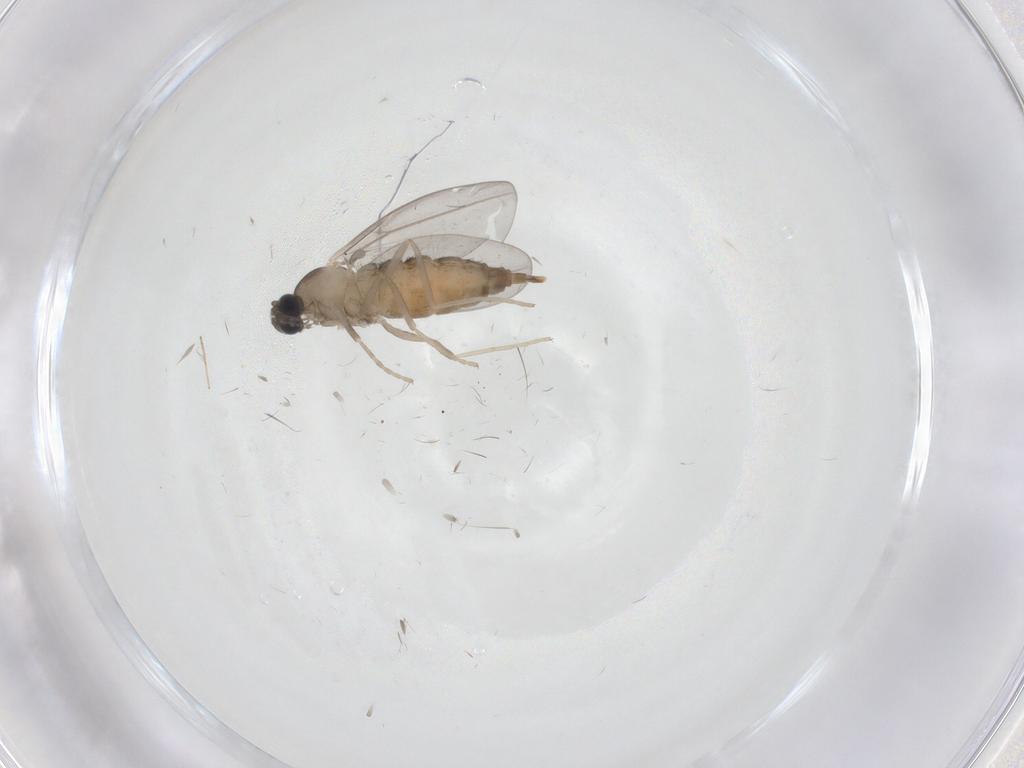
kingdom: Animalia
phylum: Arthropoda
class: Insecta
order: Diptera
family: Cecidomyiidae
